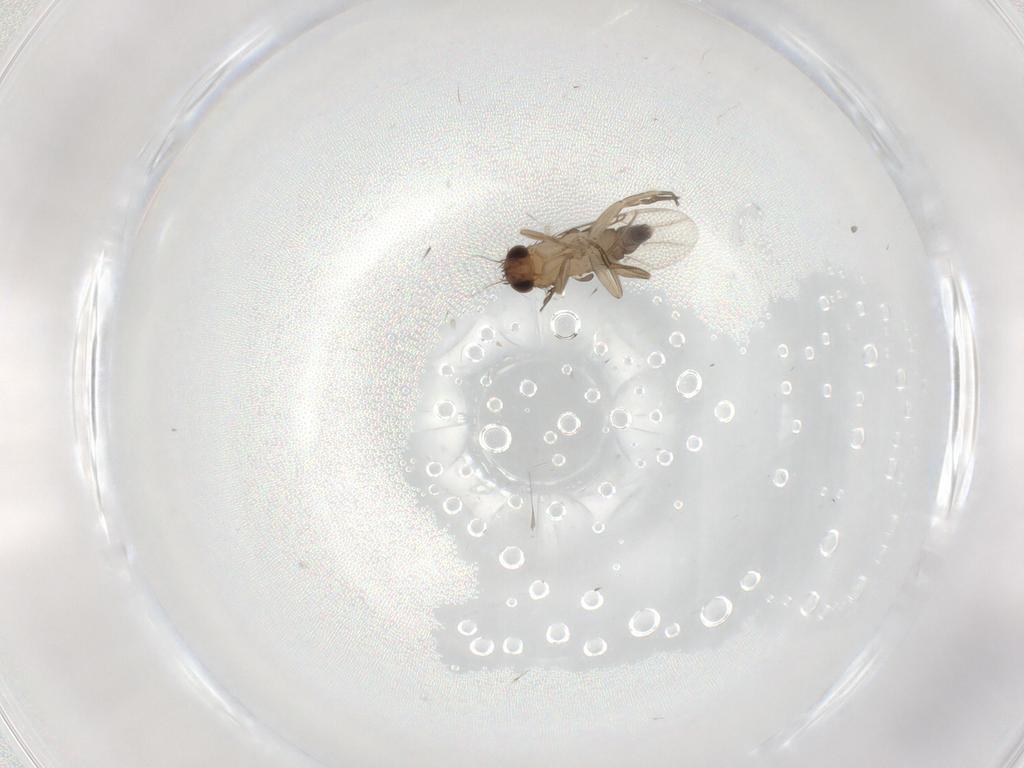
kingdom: Animalia
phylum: Arthropoda
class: Insecta
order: Diptera
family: Phoridae
